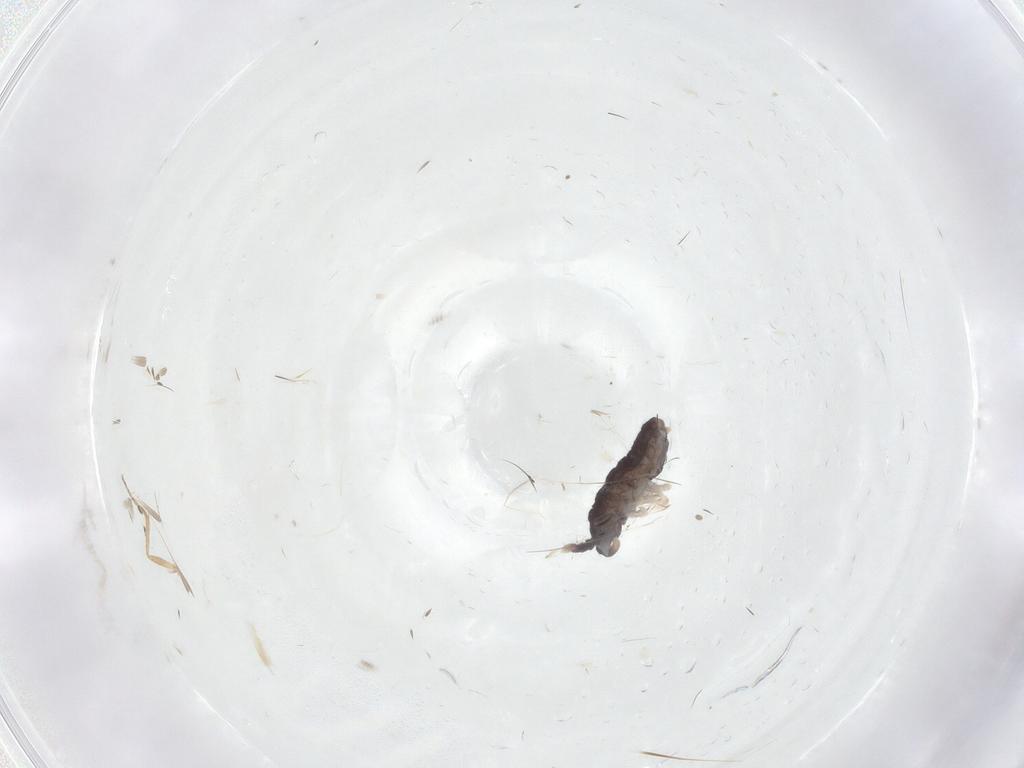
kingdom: Animalia
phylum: Arthropoda
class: Collembola
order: Poduromorpha
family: Neanuridae
